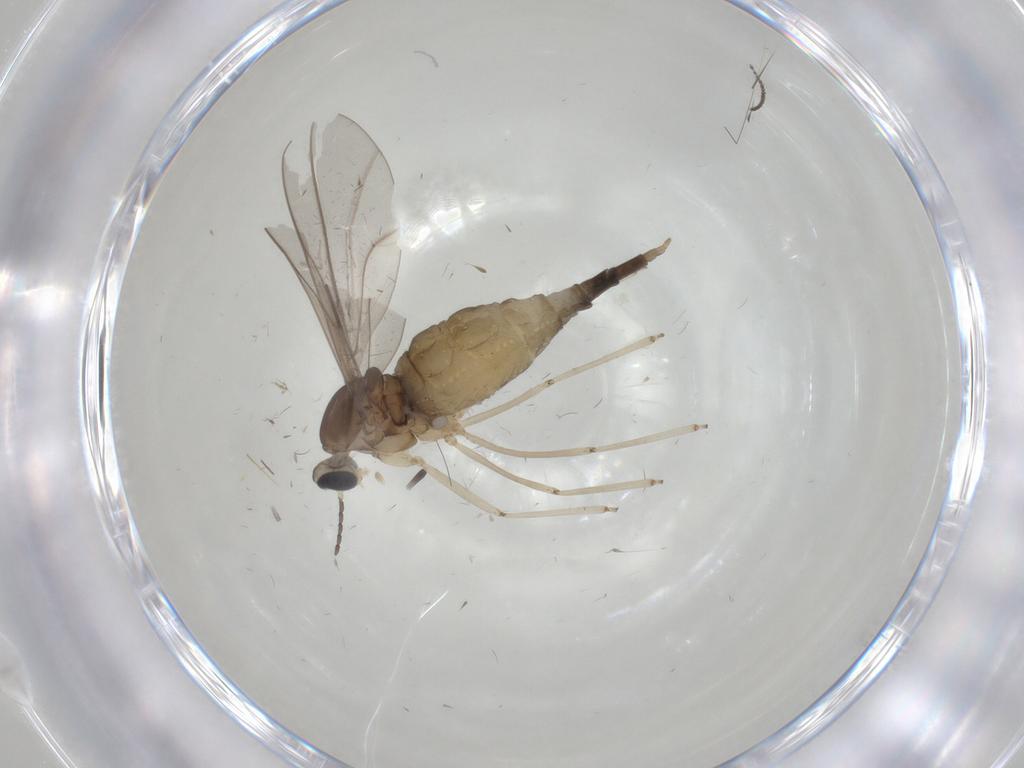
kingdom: Animalia
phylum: Arthropoda
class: Insecta
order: Diptera
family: Cecidomyiidae
